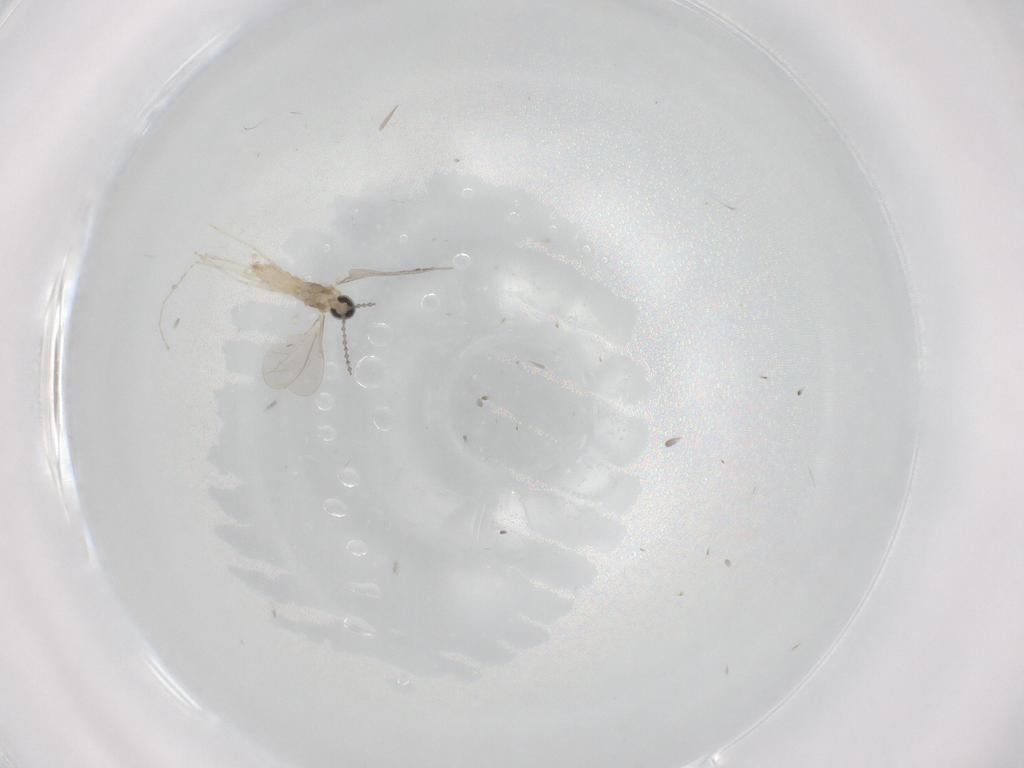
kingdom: Animalia
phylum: Arthropoda
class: Insecta
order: Diptera
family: Cecidomyiidae
